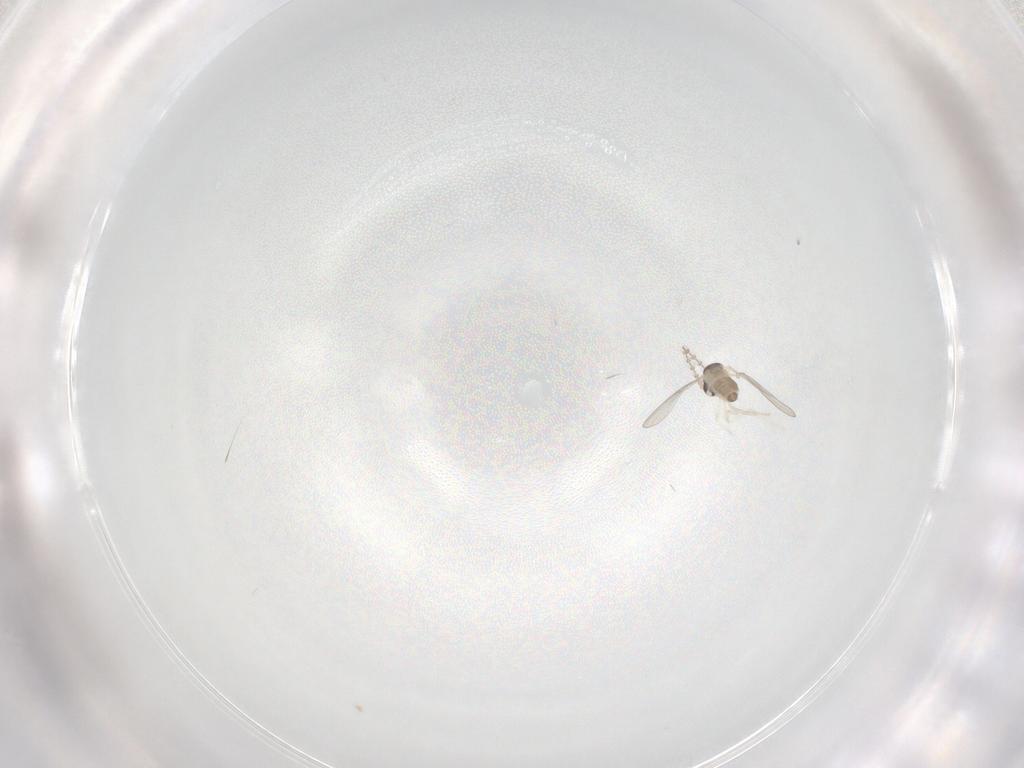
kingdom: Animalia
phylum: Arthropoda
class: Insecta
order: Diptera
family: Cecidomyiidae
